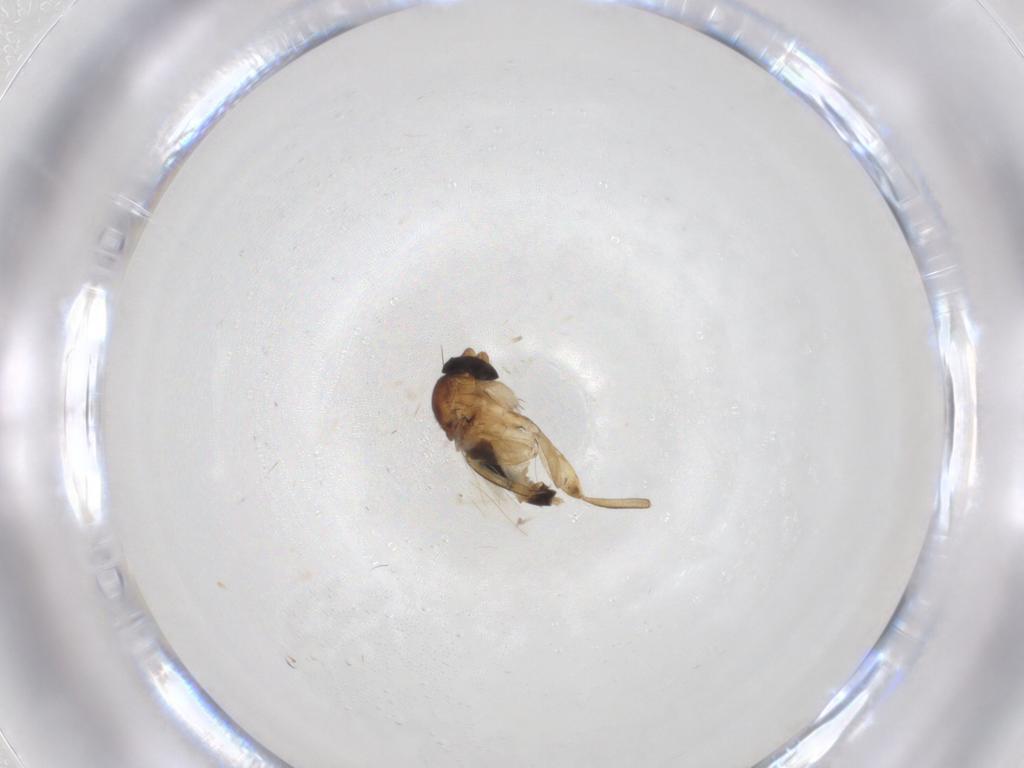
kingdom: Animalia
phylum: Arthropoda
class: Insecta
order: Diptera
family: Phoridae
